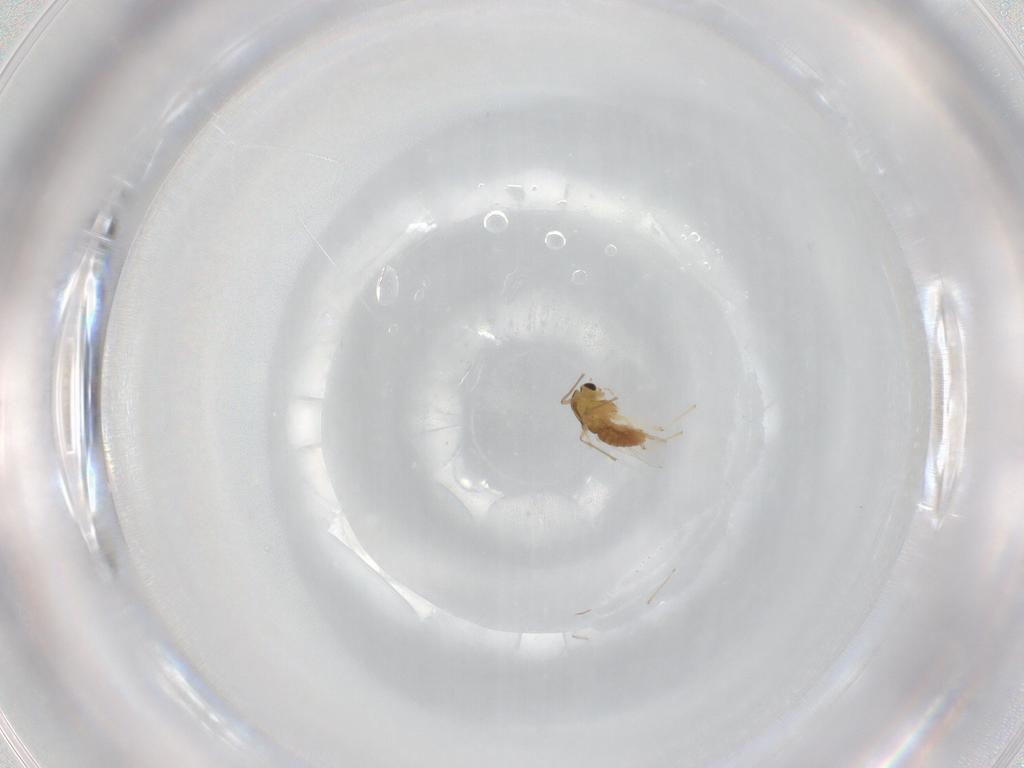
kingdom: Animalia
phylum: Arthropoda
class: Insecta
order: Diptera
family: Chironomidae
